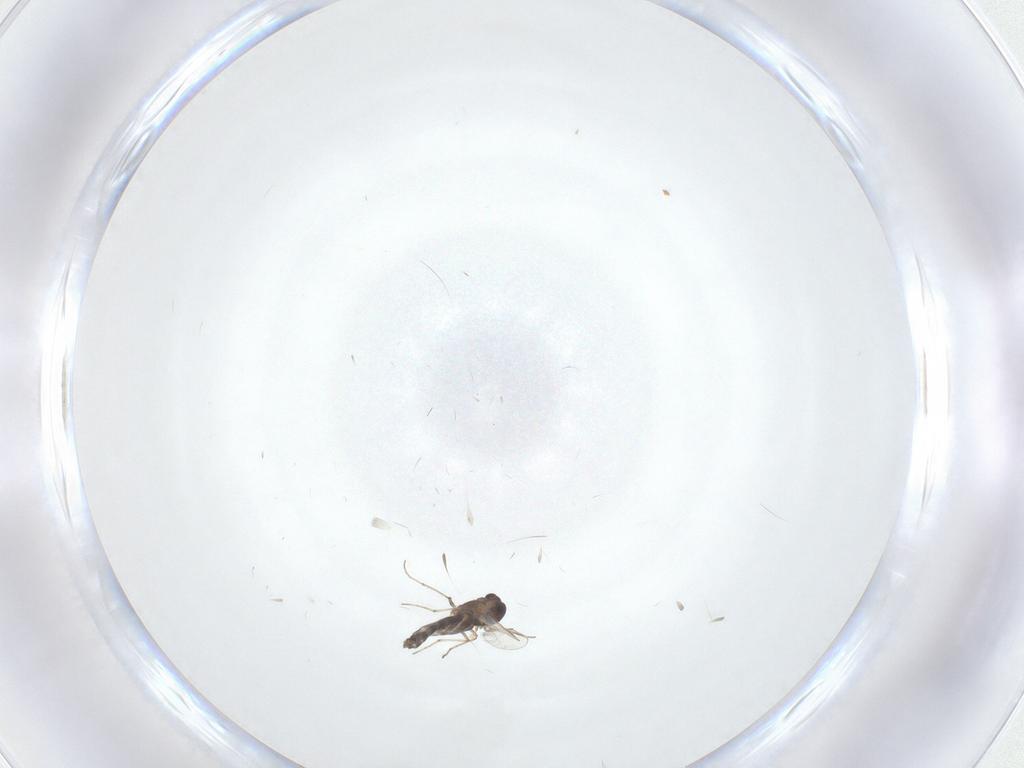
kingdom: Animalia
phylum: Arthropoda
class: Insecta
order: Diptera
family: Chironomidae
